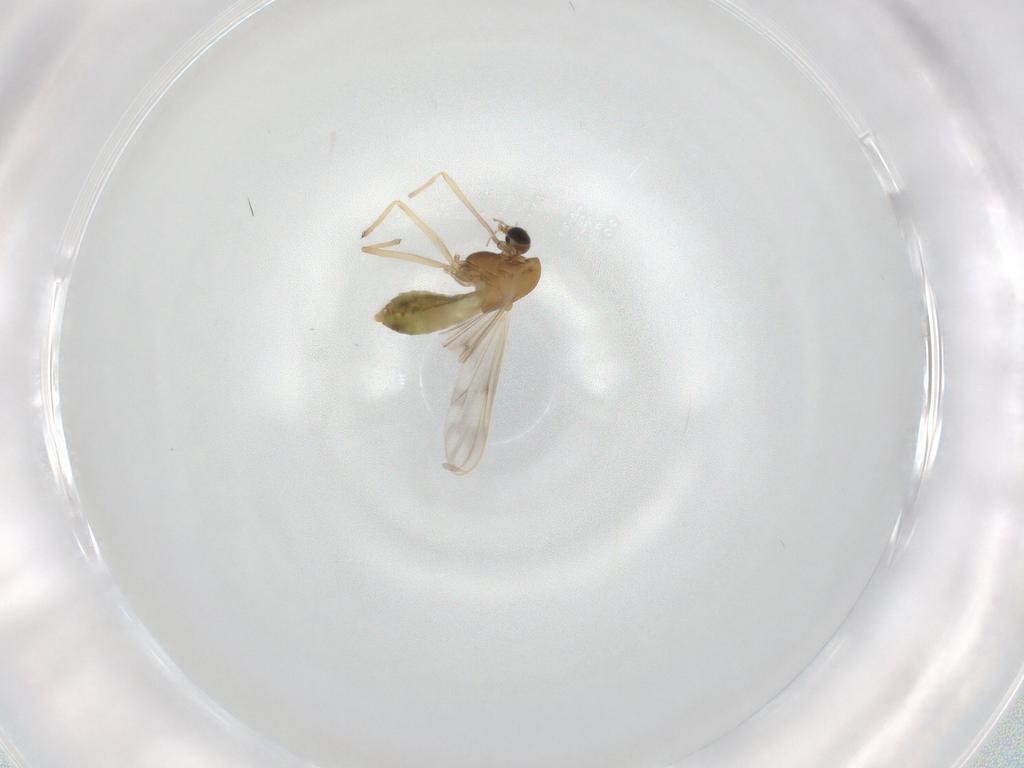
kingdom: Animalia
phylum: Arthropoda
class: Insecta
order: Diptera
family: Chironomidae
